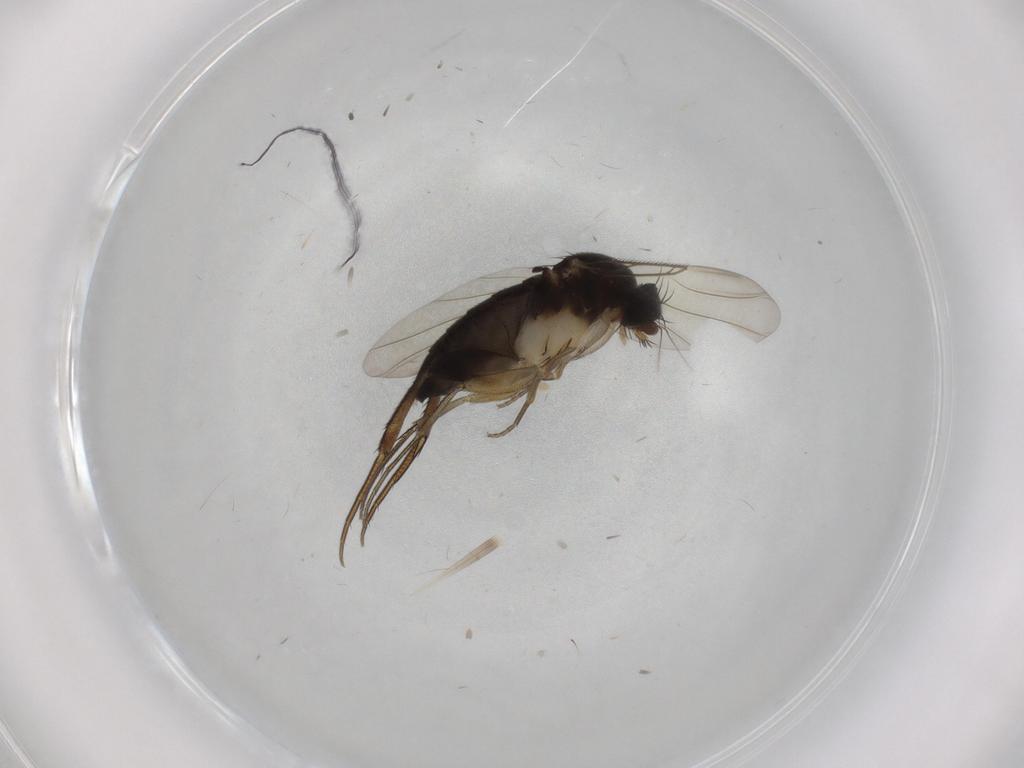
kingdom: Animalia
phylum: Arthropoda
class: Insecta
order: Diptera
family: Phoridae
